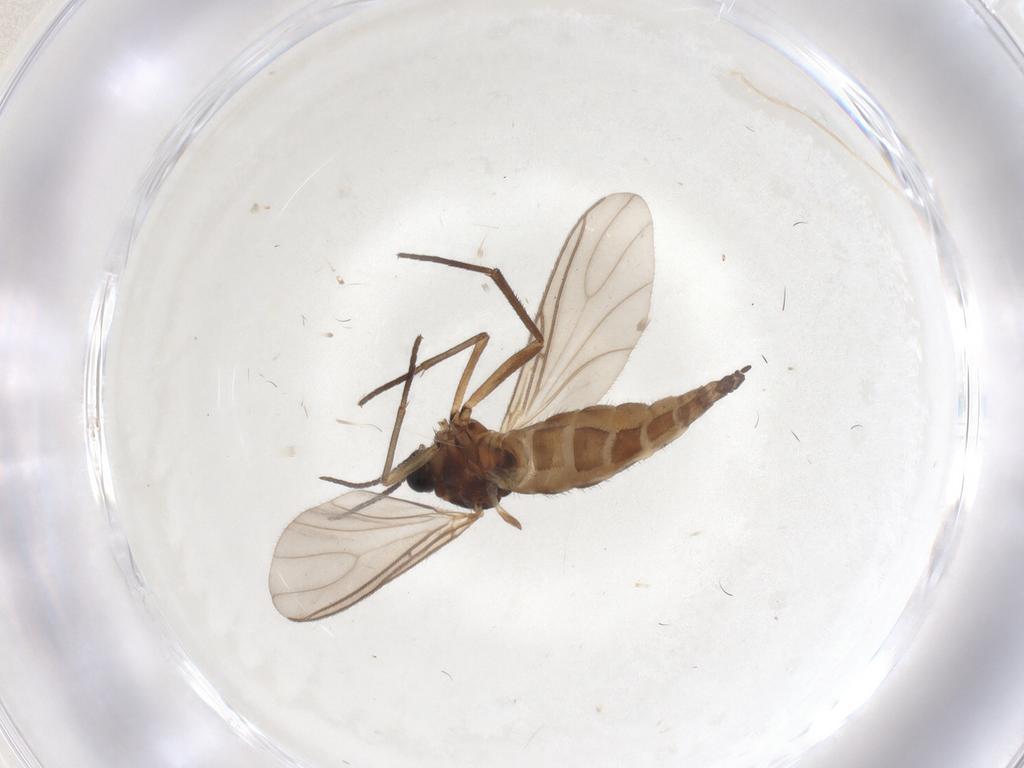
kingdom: Animalia
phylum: Arthropoda
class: Insecta
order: Diptera
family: Sciaridae
